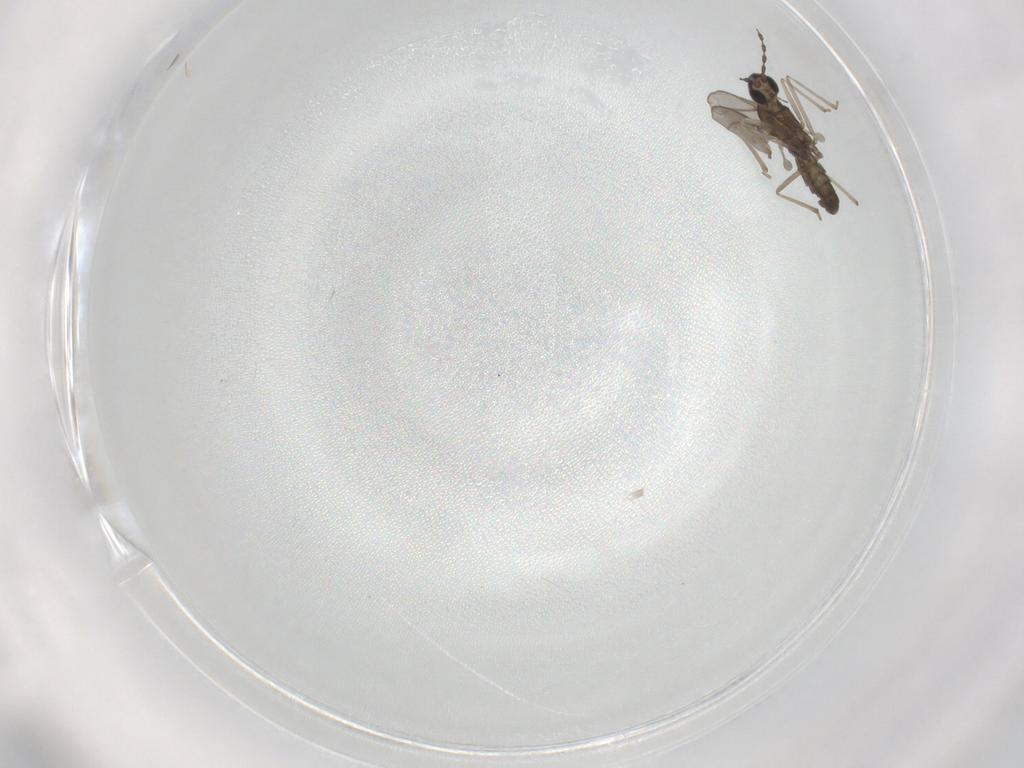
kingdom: Animalia
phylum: Arthropoda
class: Insecta
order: Diptera
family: Cecidomyiidae
